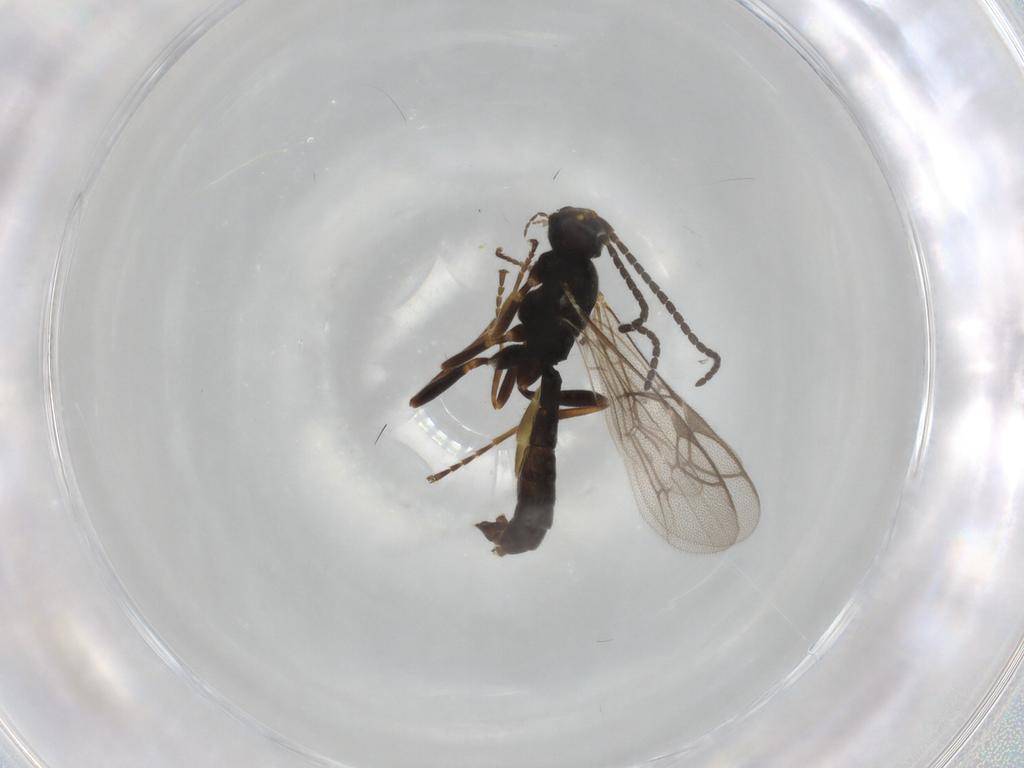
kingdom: Animalia
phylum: Arthropoda
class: Insecta
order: Hymenoptera
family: Ichneumonidae
